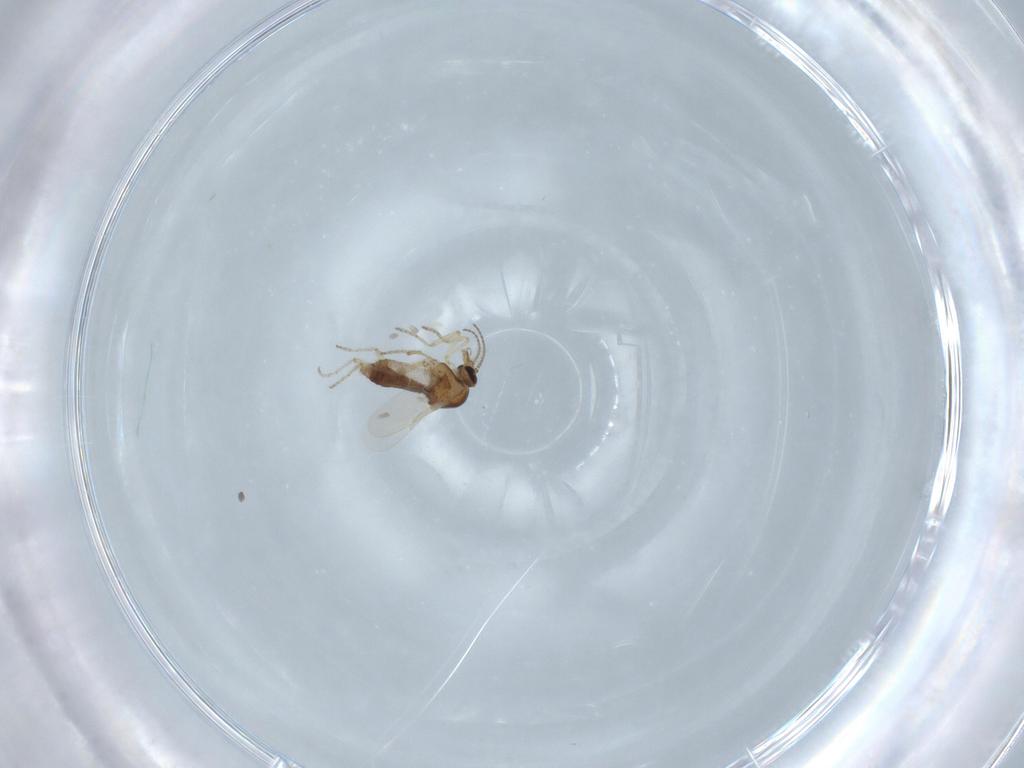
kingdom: Animalia
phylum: Arthropoda
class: Insecta
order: Diptera
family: Ceratopogonidae
